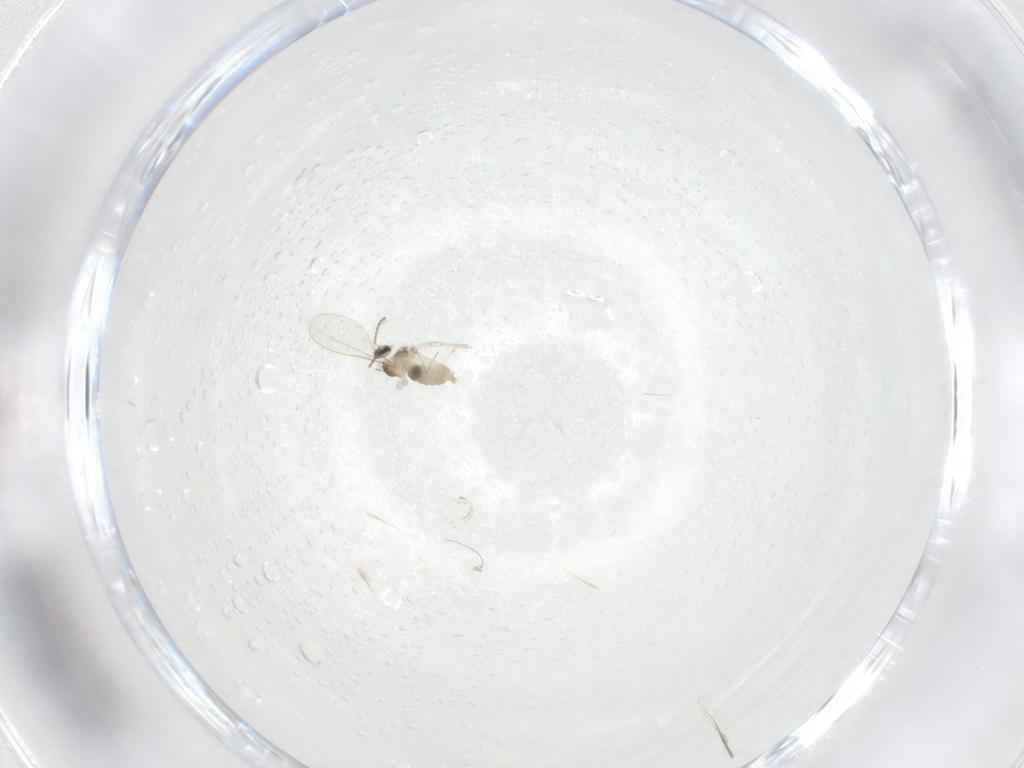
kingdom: Animalia
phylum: Arthropoda
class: Insecta
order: Diptera
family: Cecidomyiidae
